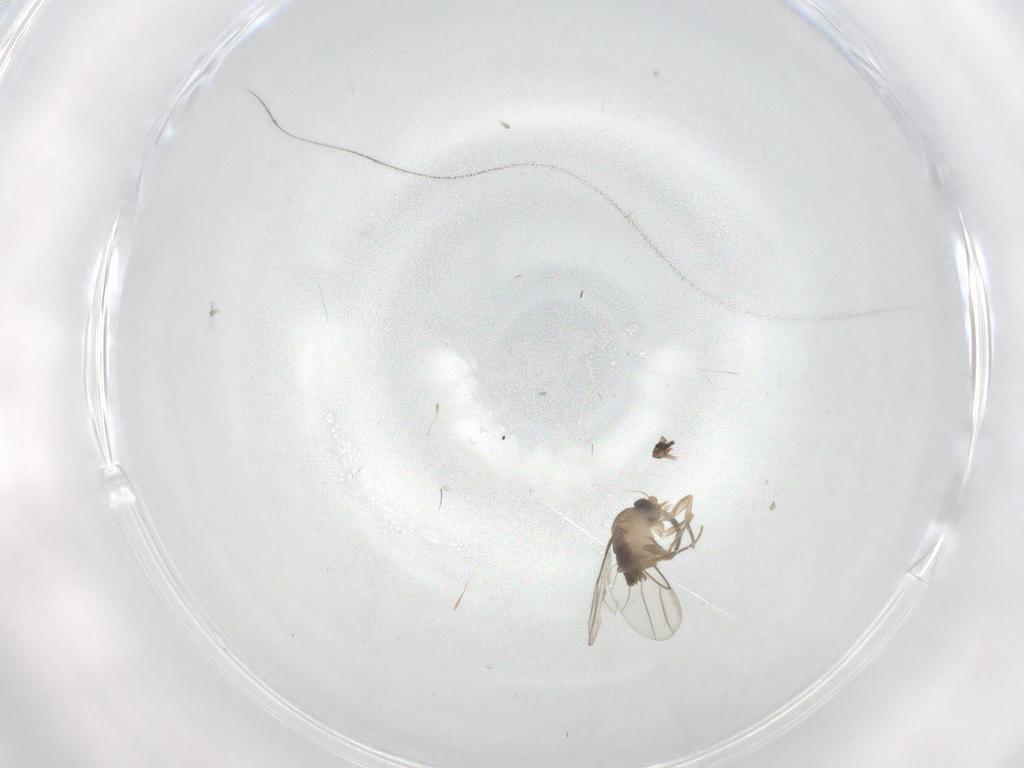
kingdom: Animalia
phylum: Arthropoda
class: Insecta
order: Diptera
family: Phoridae
